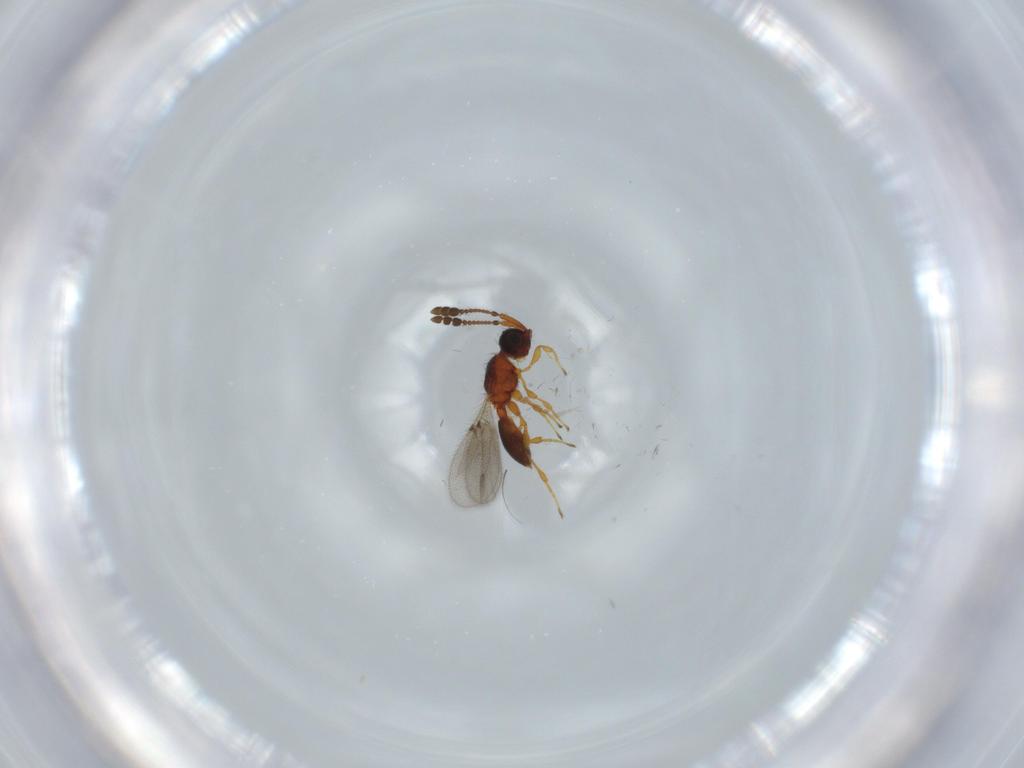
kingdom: Animalia
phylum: Arthropoda
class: Insecta
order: Hymenoptera
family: Diapriidae
